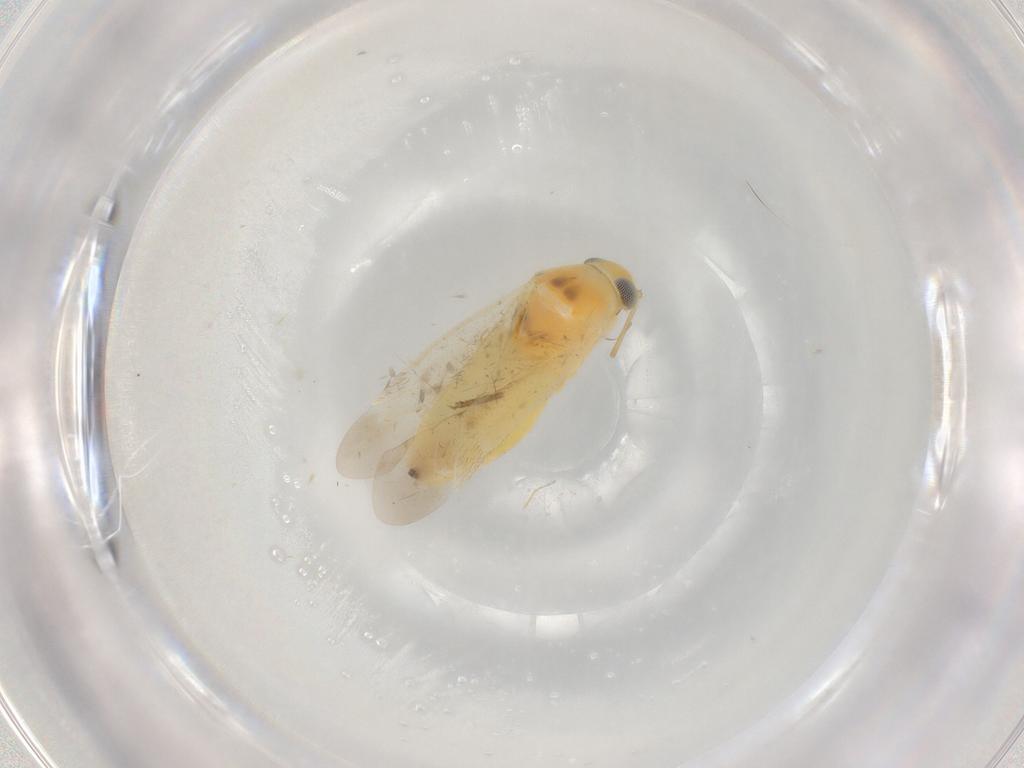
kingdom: Animalia
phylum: Arthropoda
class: Insecta
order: Hemiptera
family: Miridae
